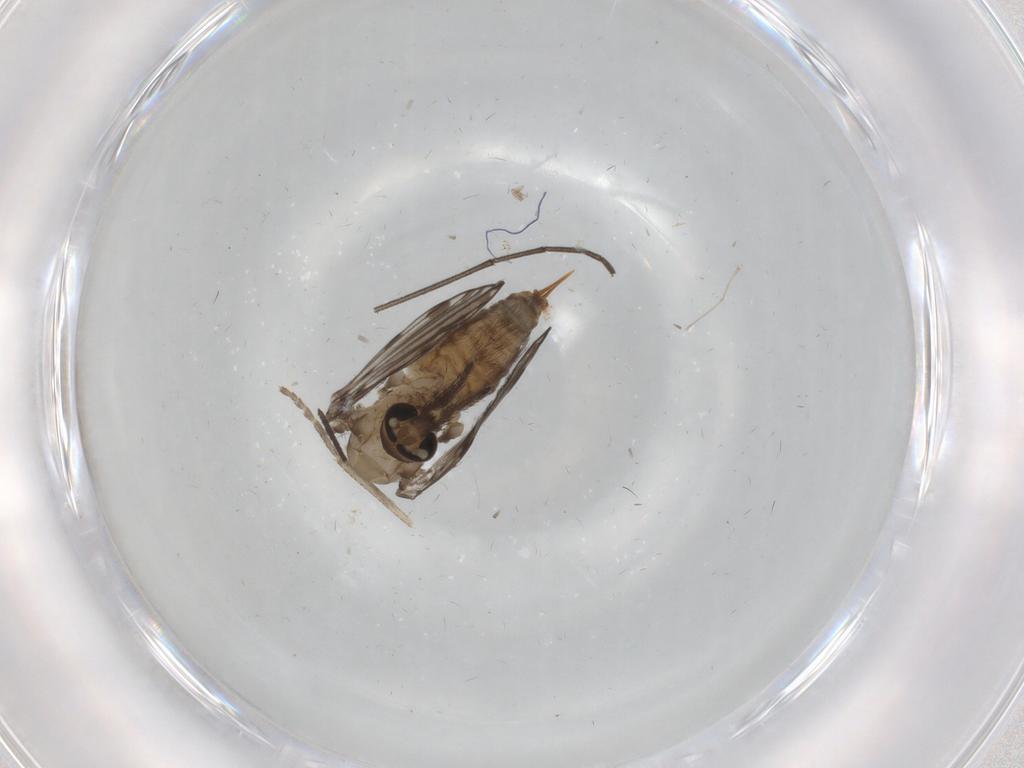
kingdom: Animalia
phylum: Arthropoda
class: Insecta
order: Diptera
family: Psychodidae
